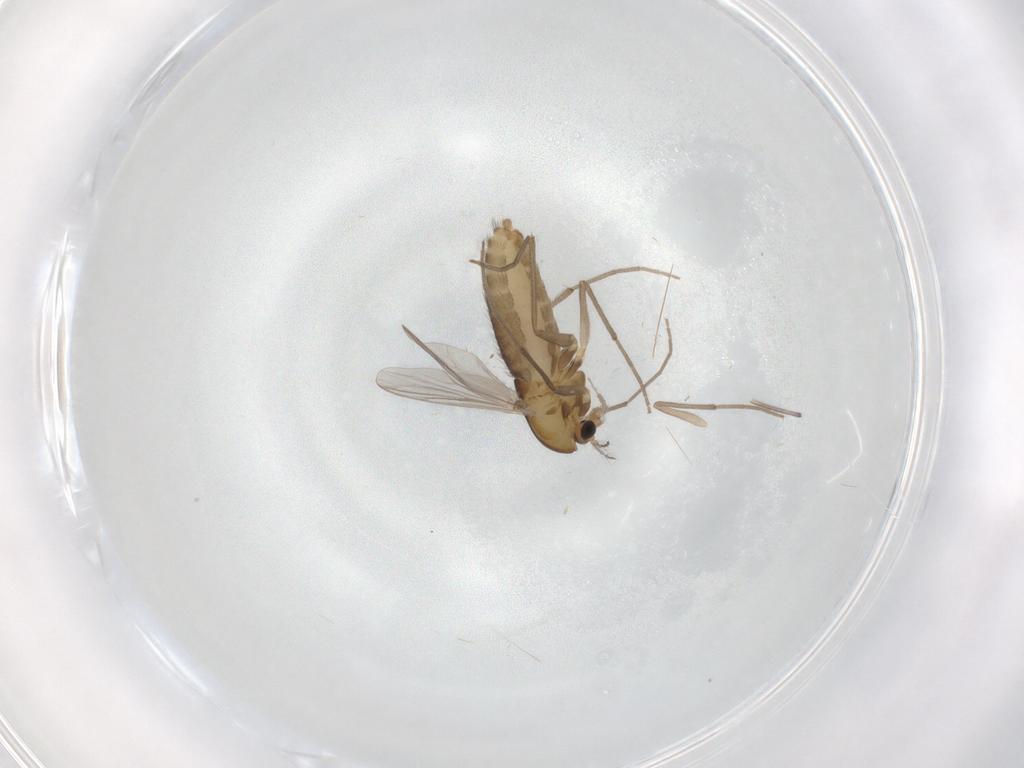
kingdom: Animalia
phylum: Arthropoda
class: Insecta
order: Diptera
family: Chironomidae
